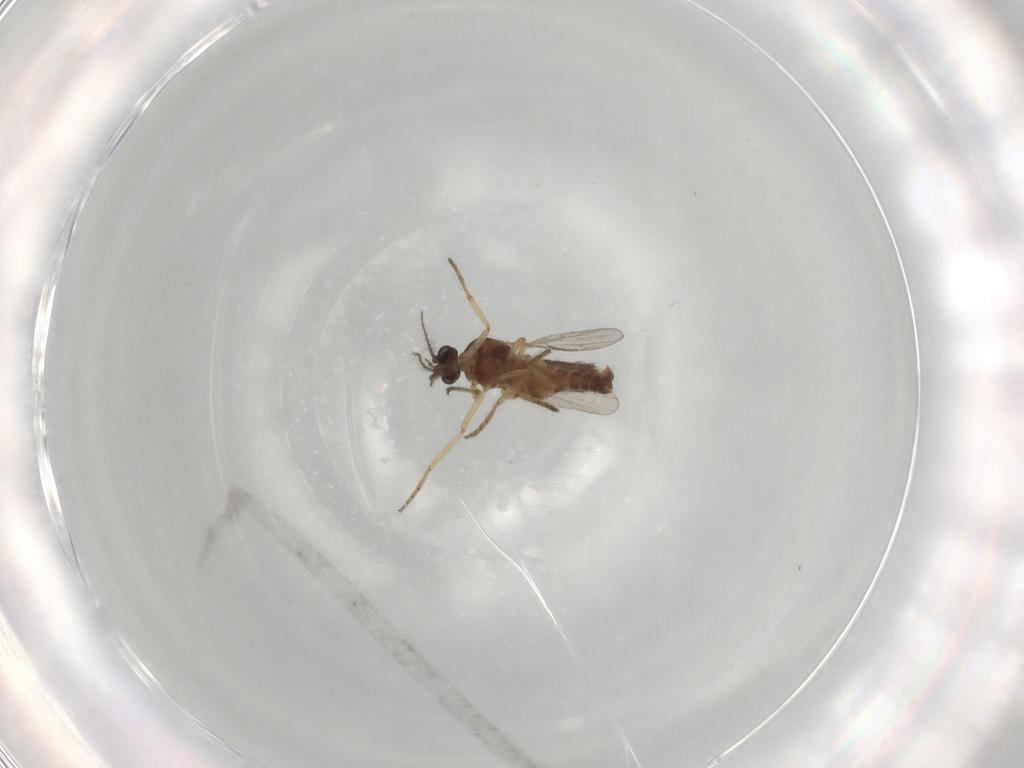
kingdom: Animalia
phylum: Arthropoda
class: Insecta
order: Diptera
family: Ceratopogonidae
